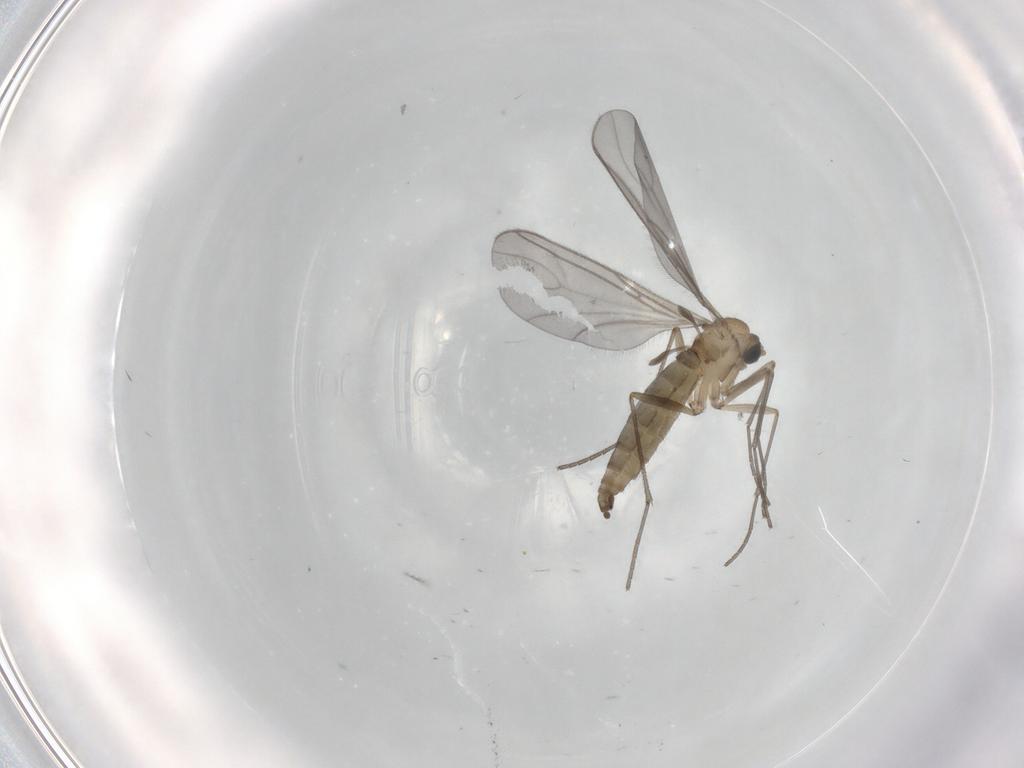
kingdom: Animalia
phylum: Arthropoda
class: Insecta
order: Diptera
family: Sciaridae
